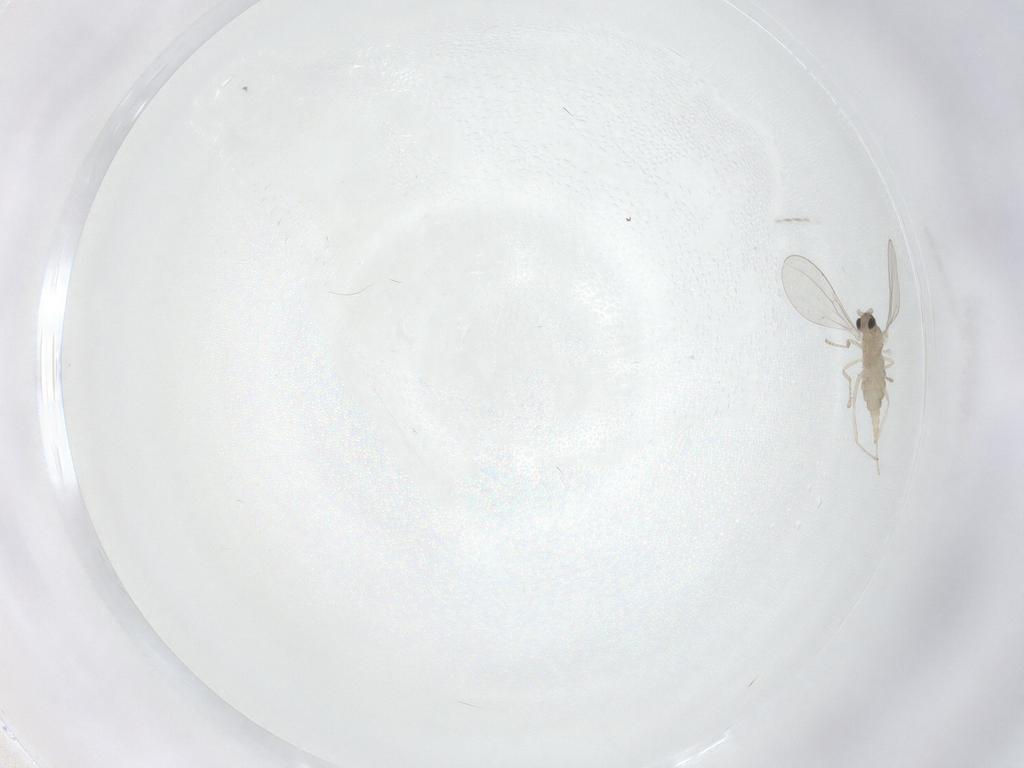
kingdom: Animalia
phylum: Arthropoda
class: Insecta
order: Diptera
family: Cecidomyiidae
